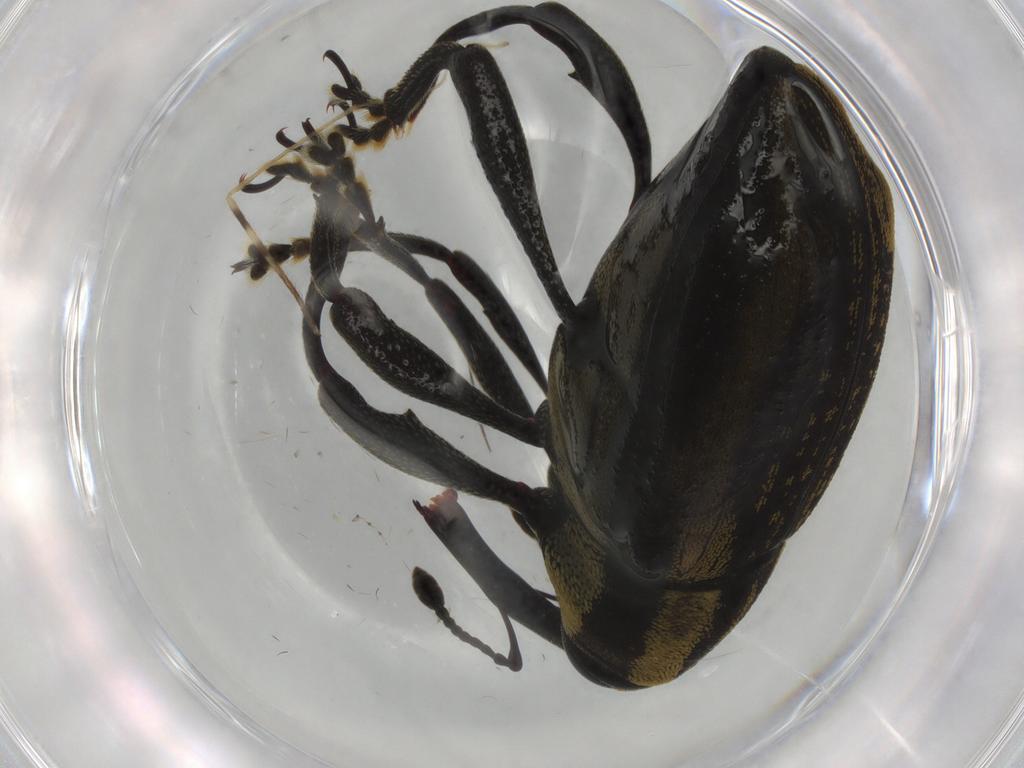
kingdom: Animalia
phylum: Arthropoda
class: Insecta
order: Coleoptera
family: Curculionidae
